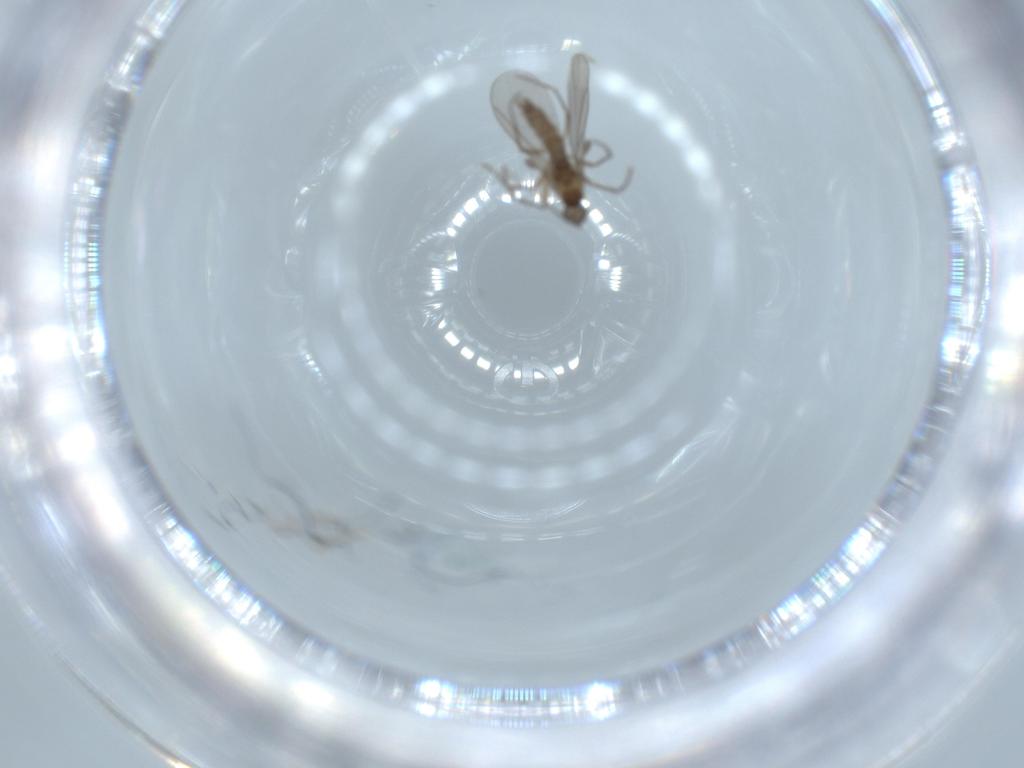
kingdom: Animalia
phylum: Arthropoda
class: Insecta
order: Diptera
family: Sciaridae
